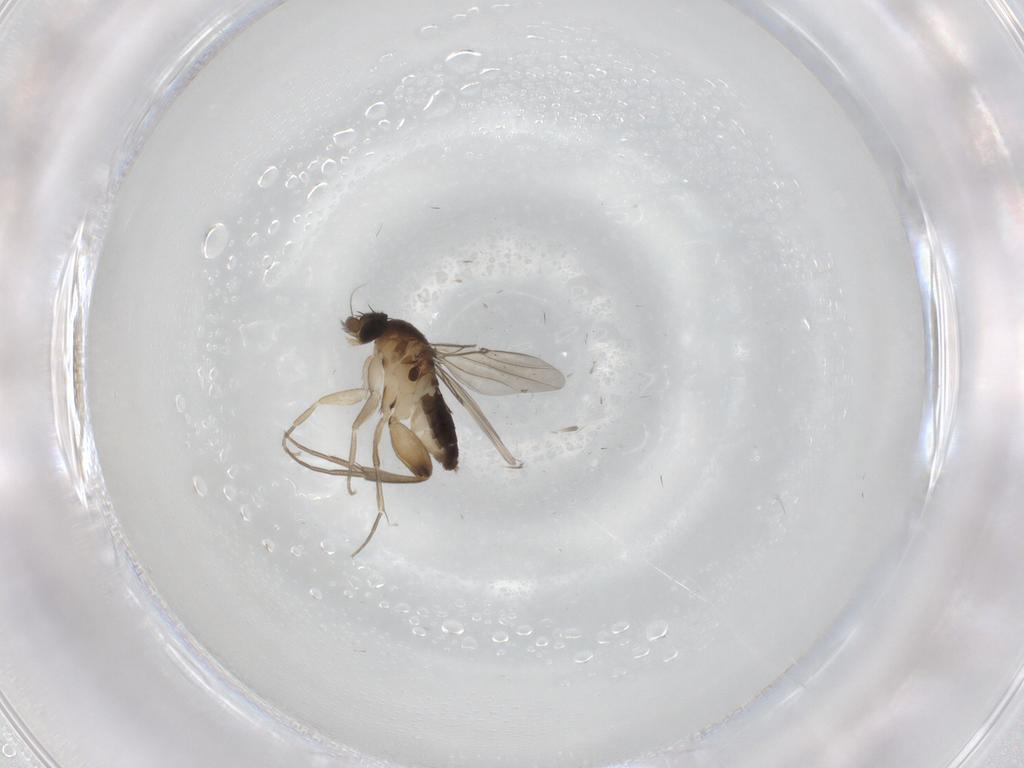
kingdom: Animalia
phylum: Arthropoda
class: Insecta
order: Diptera
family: Phoridae
